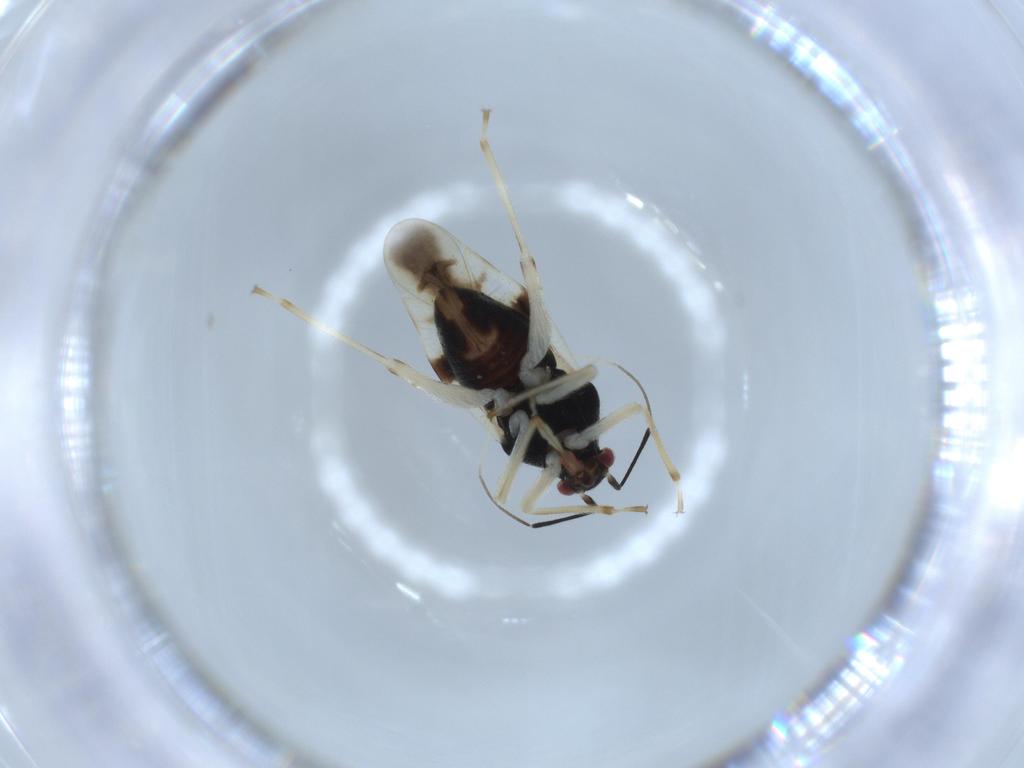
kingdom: Animalia
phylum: Arthropoda
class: Insecta
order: Hemiptera
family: Miridae
